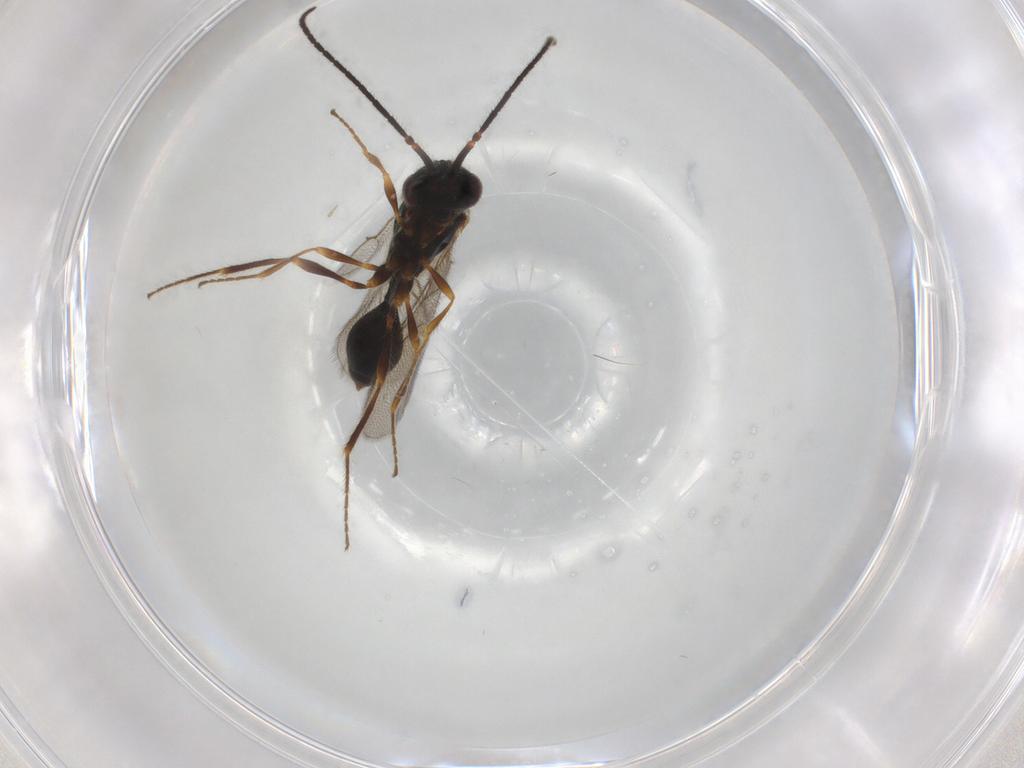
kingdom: Animalia
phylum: Arthropoda
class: Insecta
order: Hymenoptera
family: Diapriidae
